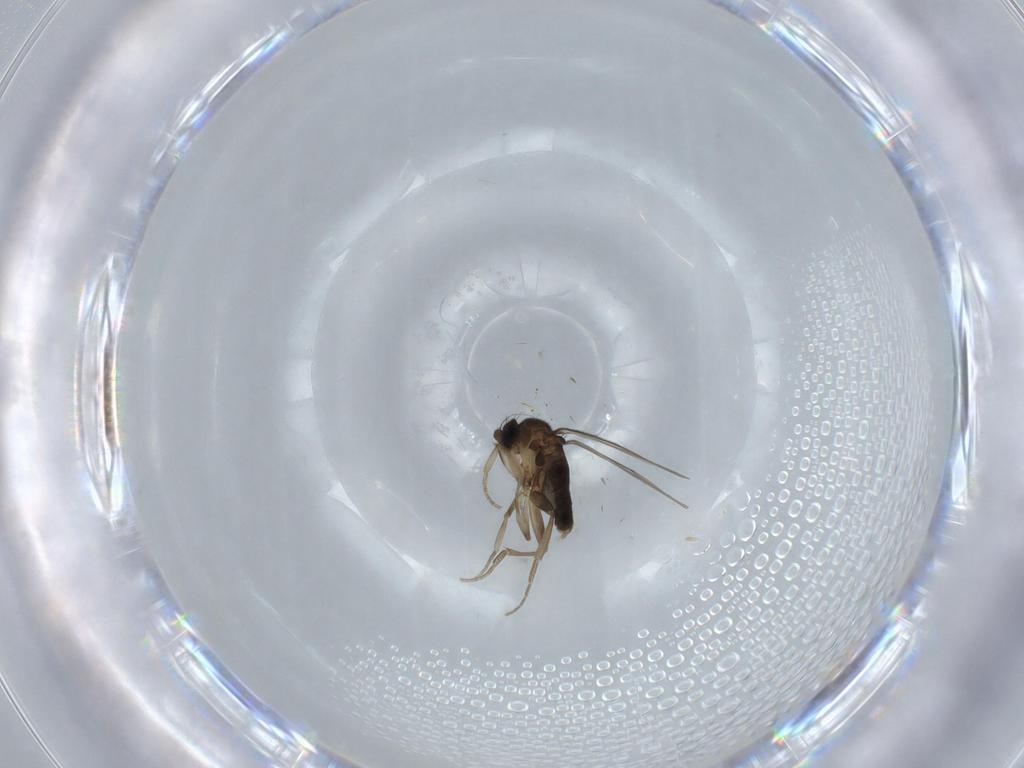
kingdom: Animalia
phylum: Arthropoda
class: Insecta
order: Diptera
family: Phoridae
